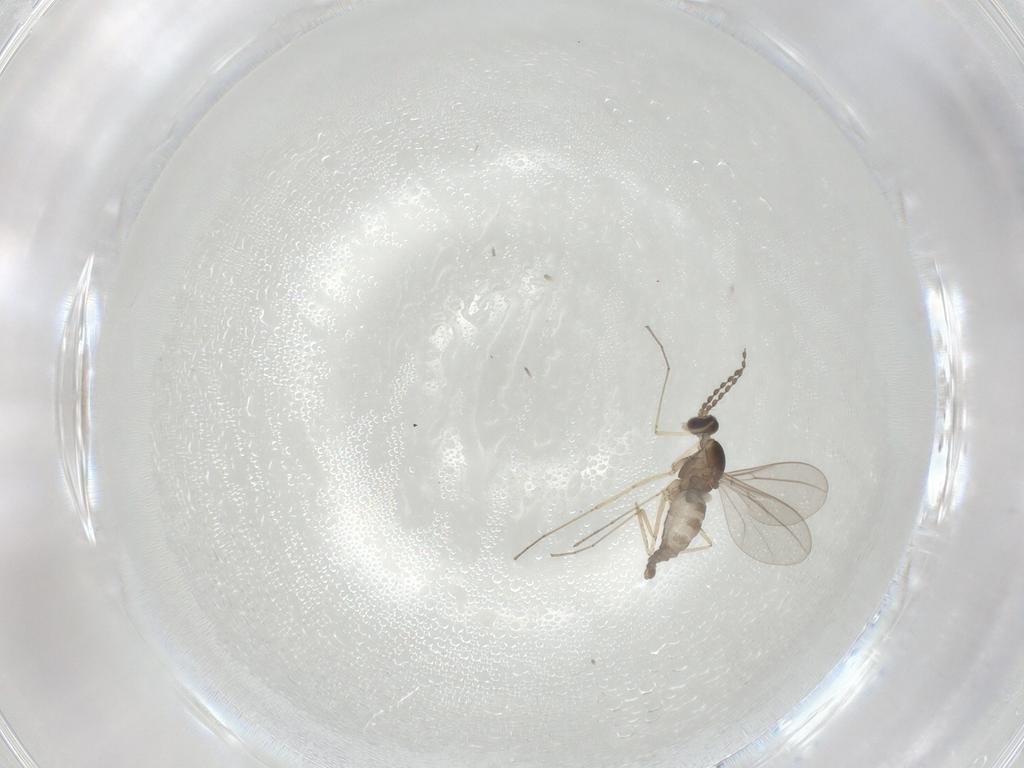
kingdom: Animalia
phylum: Arthropoda
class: Insecta
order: Diptera
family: Cecidomyiidae
